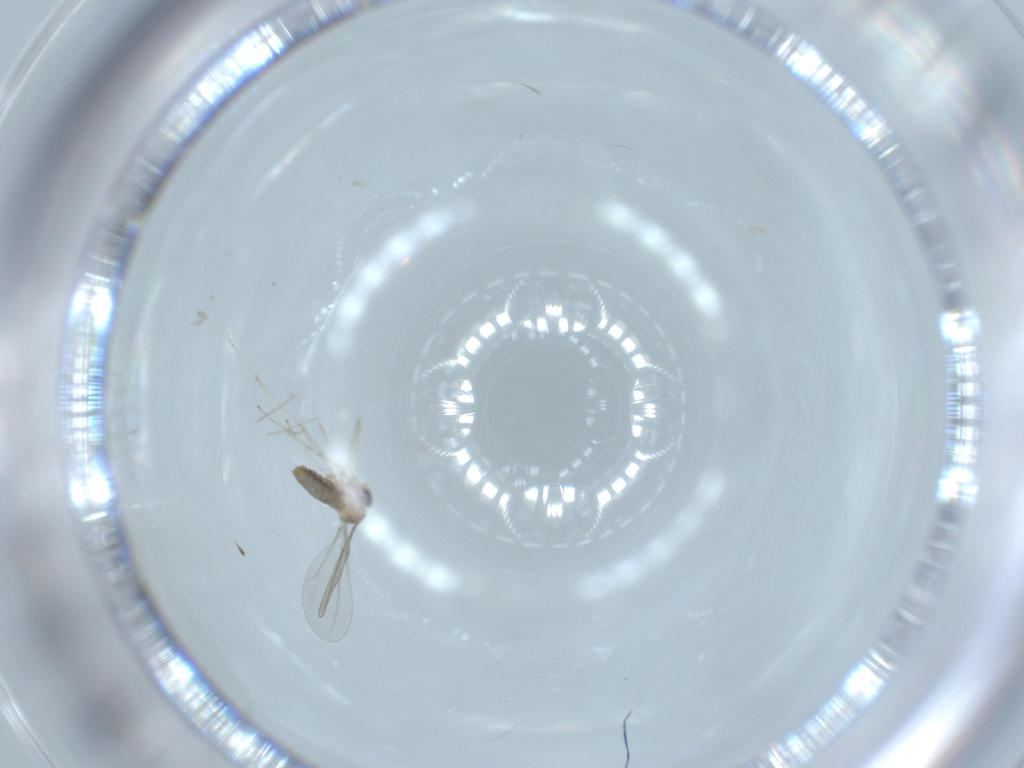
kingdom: Animalia
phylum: Arthropoda
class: Insecta
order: Diptera
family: Cecidomyiidae
